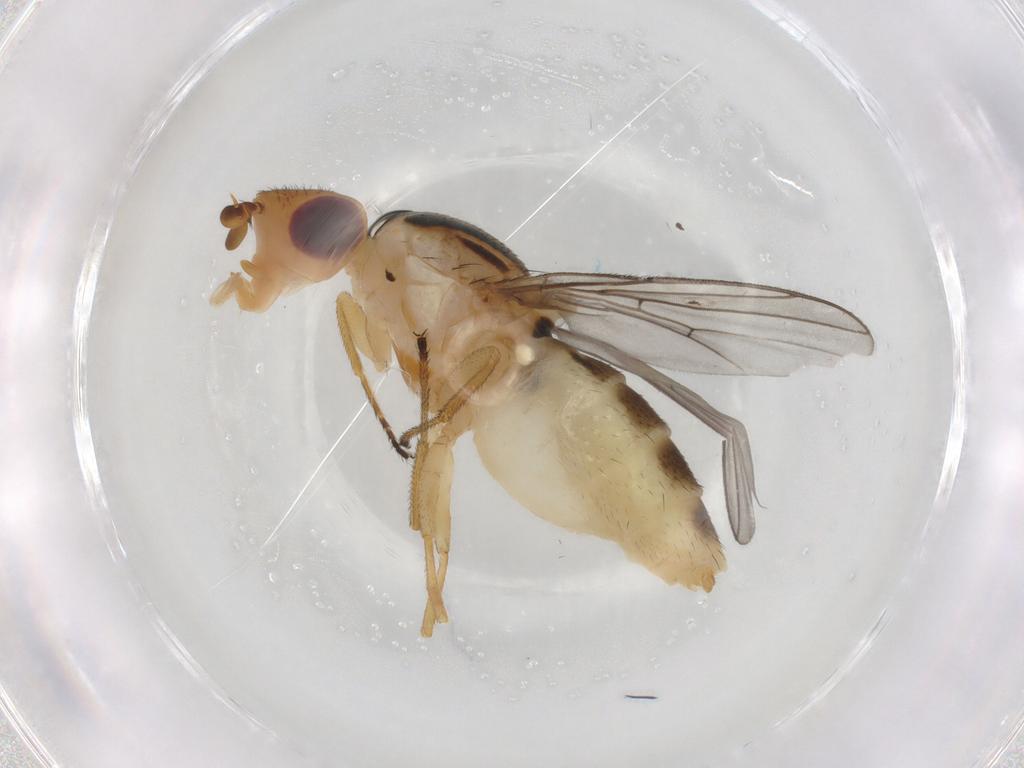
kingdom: Animalia
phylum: Arthropoda
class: Insecta
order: Diptera
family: Chloropidae
